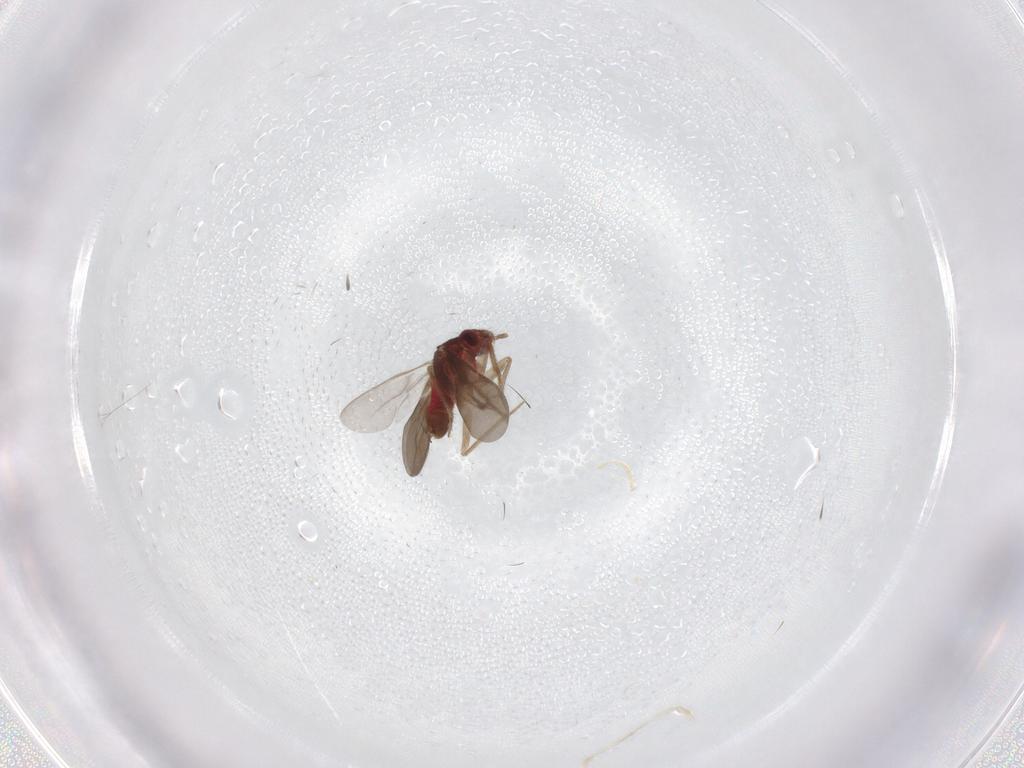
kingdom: Animalia
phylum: Arthropoda
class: Insecta
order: Hemiptera
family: Ceratocombidae
